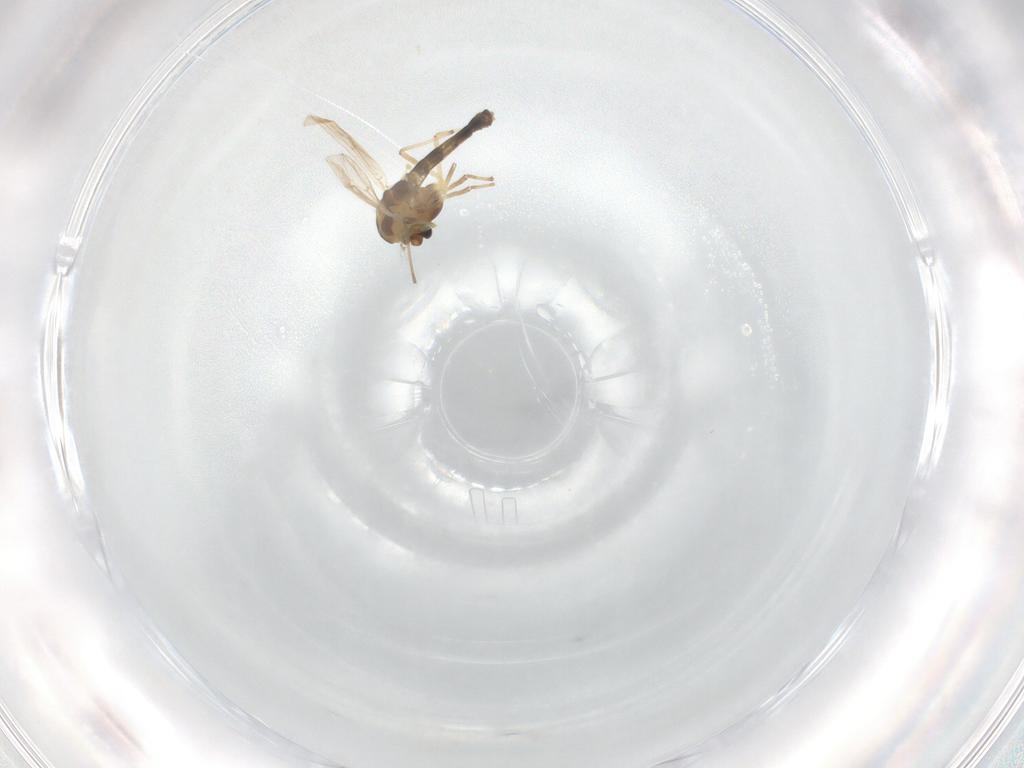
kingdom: Animalia
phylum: Arthropoda
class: Insecta
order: Diptera
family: Chironomidae
